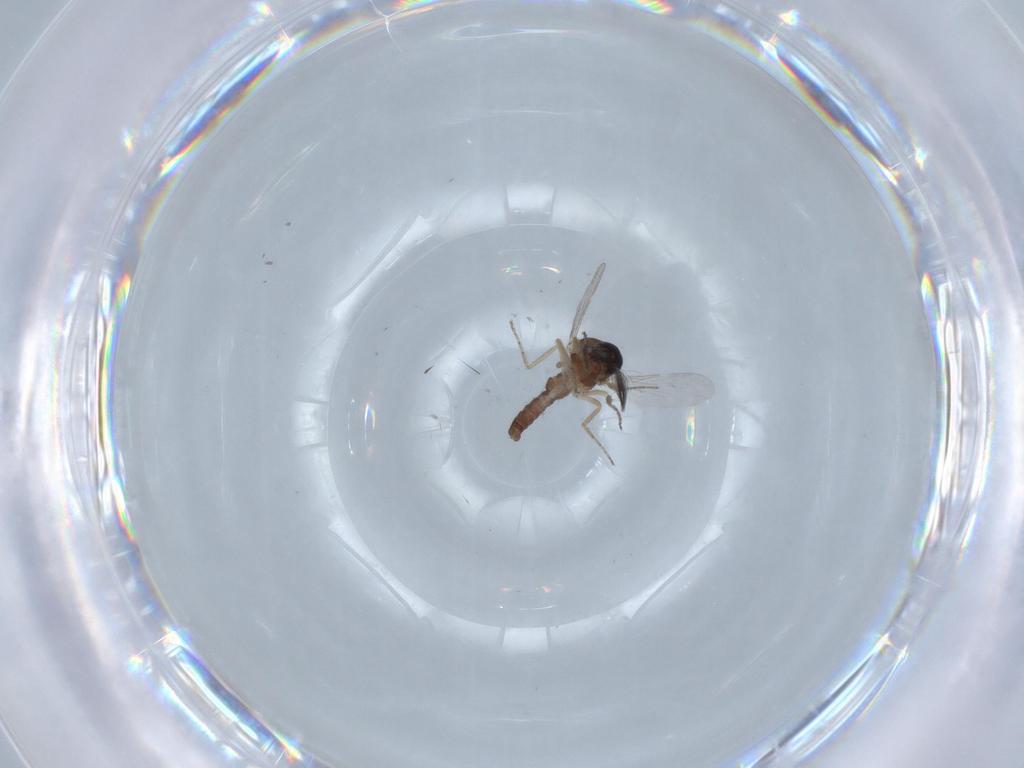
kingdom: Animalia
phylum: Arthropoda
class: Insecta
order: Diptera
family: Ceratopogonidae
